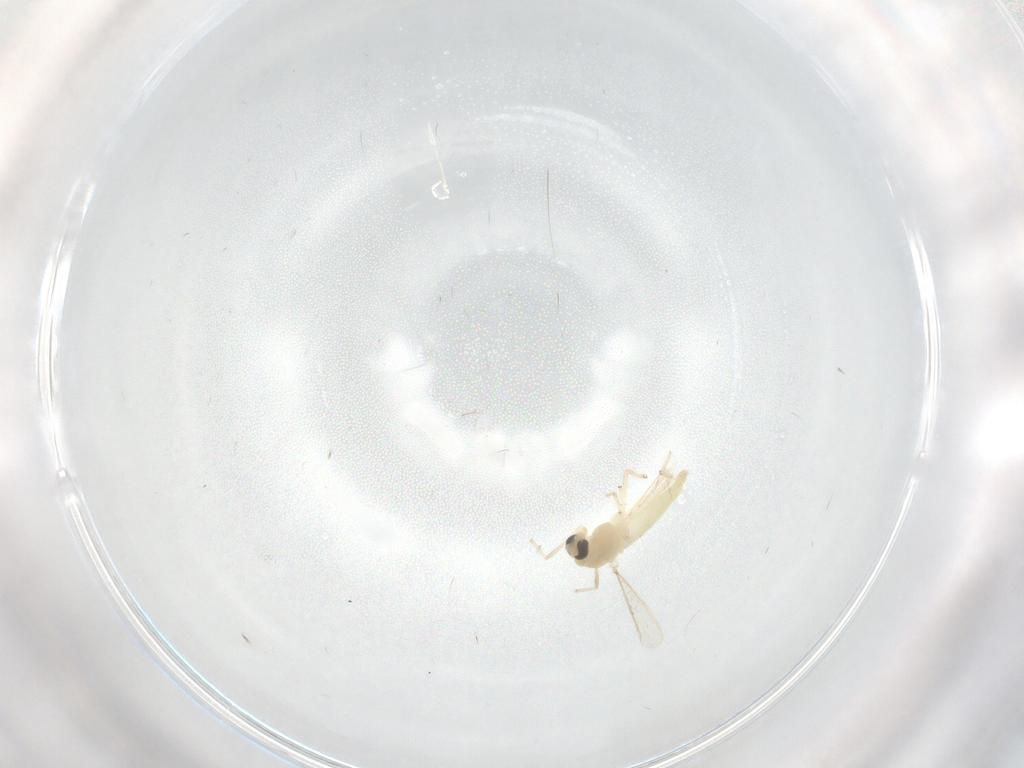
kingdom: Animalia
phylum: Arthropoda
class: Insecta
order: Diptera
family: Chironomidae
